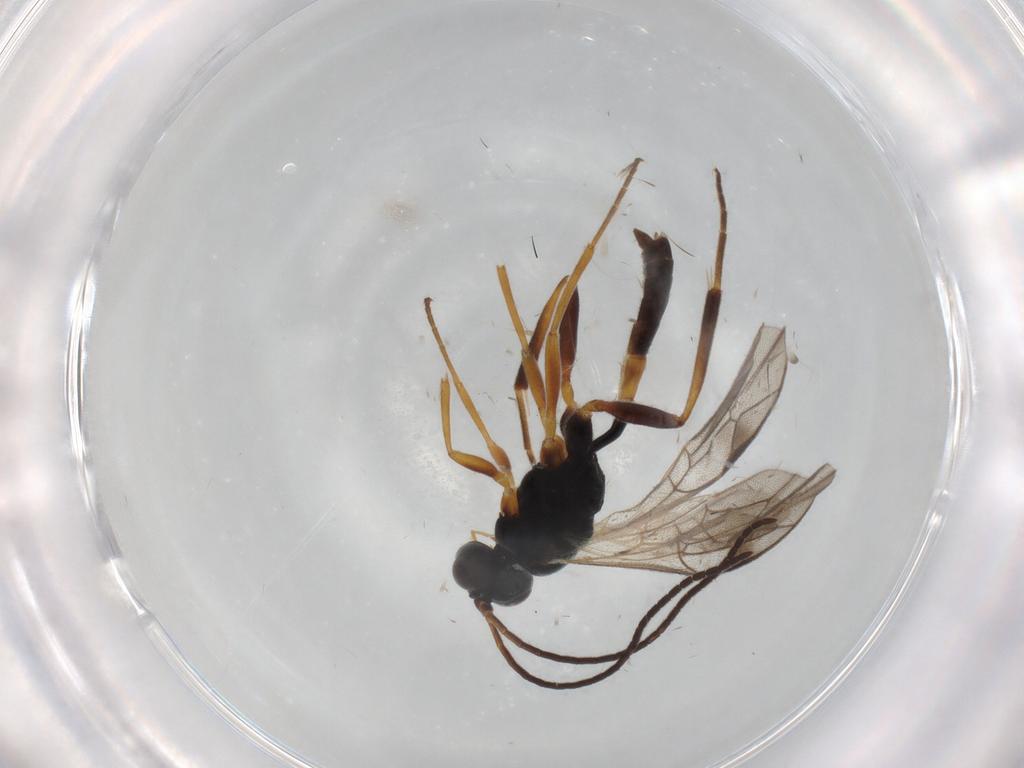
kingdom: Animalia
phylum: Arthropoda
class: Insecta
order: Hymenoptera
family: Ichneumonidae
